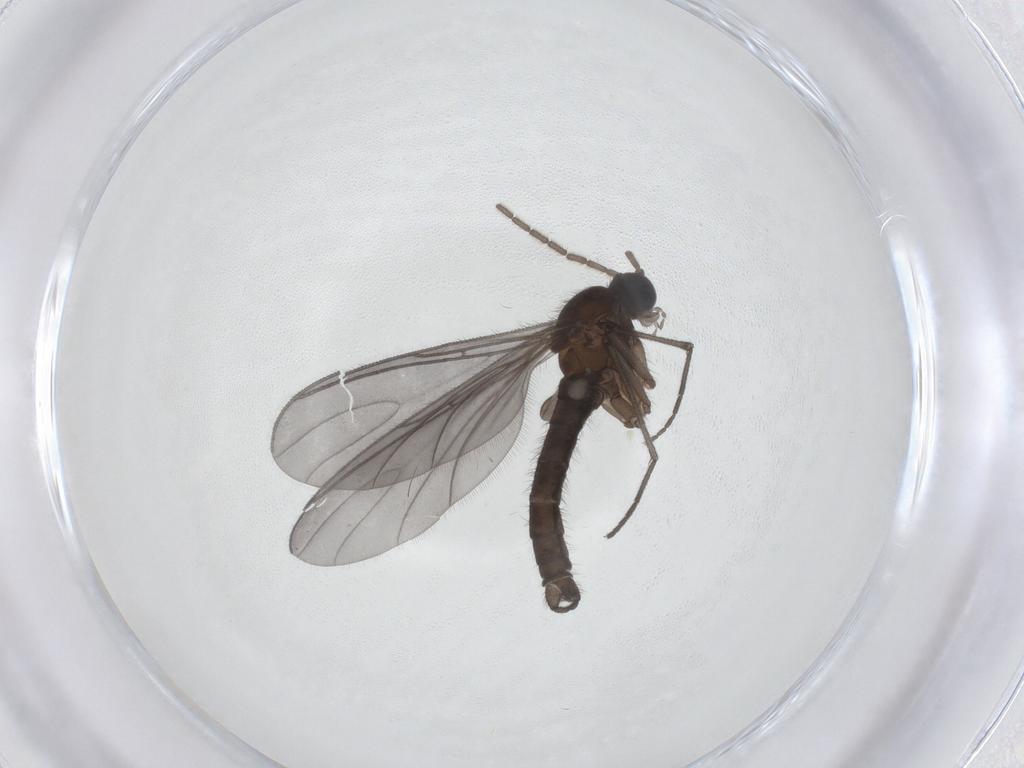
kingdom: Animalia
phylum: Arthropoda
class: Insecta
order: Diptera
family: Sciaridae
